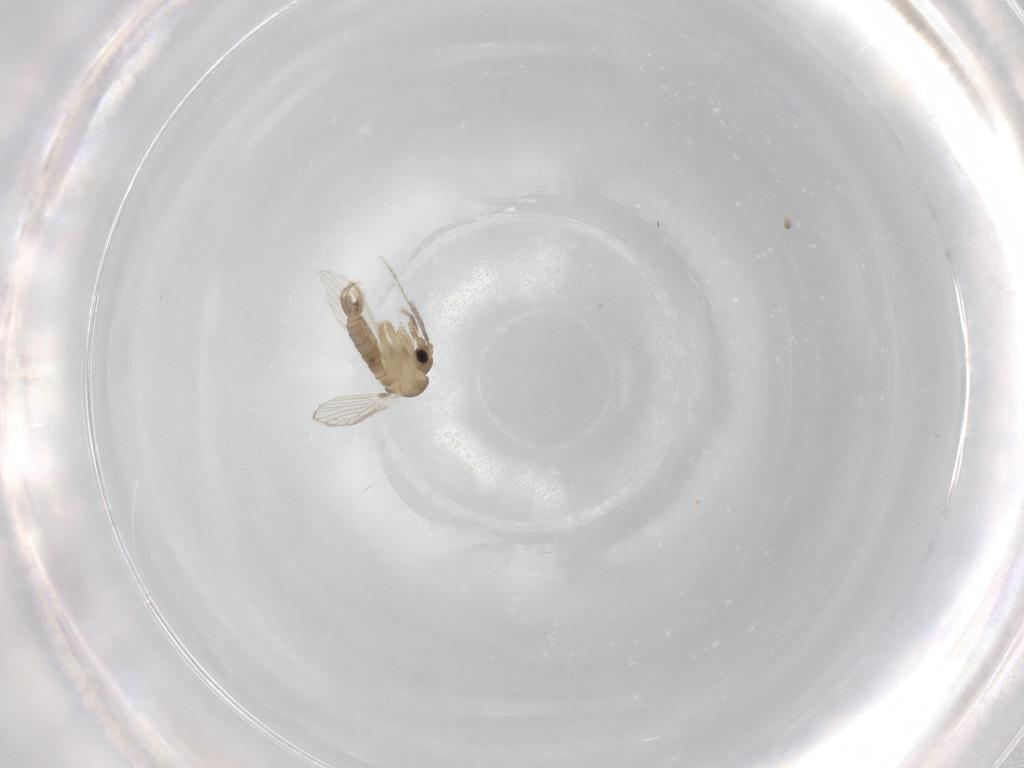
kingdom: Animalia
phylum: Arthropoda
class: Insecta
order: Diptera
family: Psychodidae
